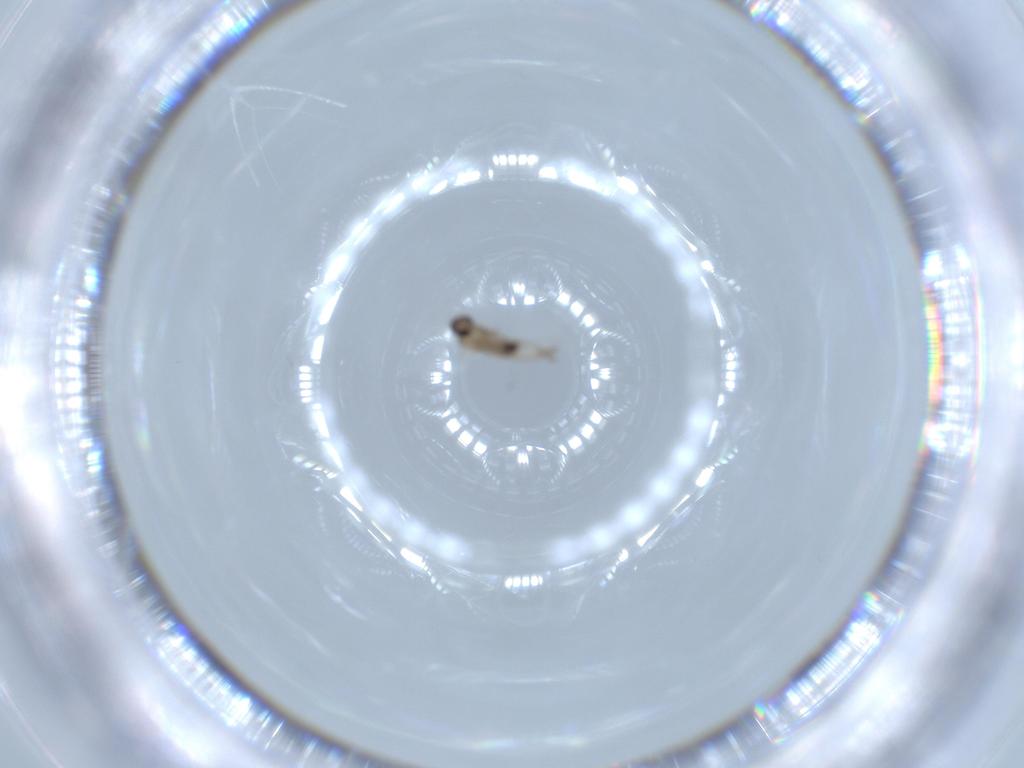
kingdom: Animalia
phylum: Arthropoda
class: Insecta
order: Diptera
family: Cecidomyiidae
